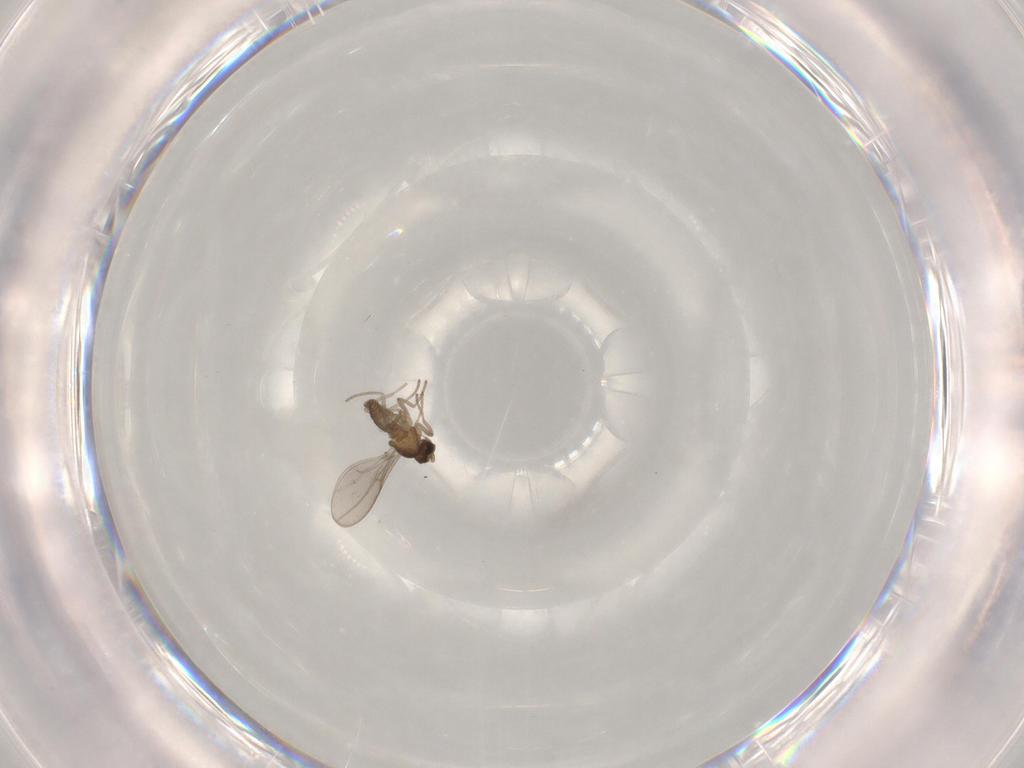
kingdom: Animalia
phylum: Arthropoda
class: Insecta
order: Diptera
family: Cecidomyiidae
